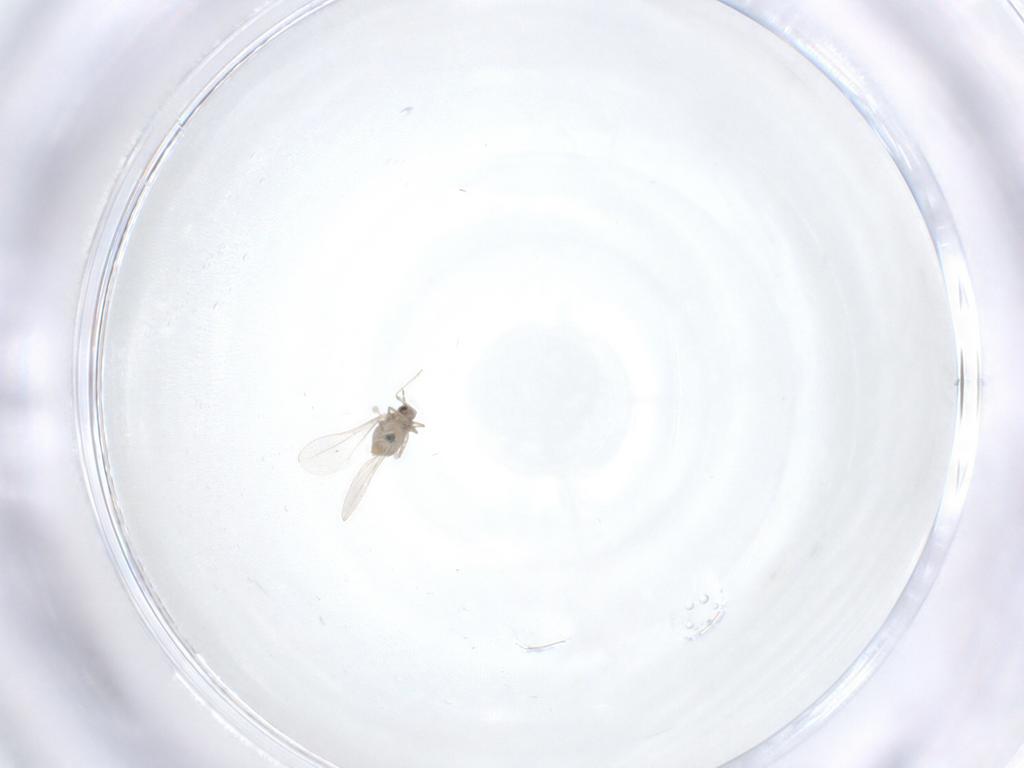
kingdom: Animalia
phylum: Arthropoda
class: Insecta
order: Diptera
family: Cecidomyiidae
